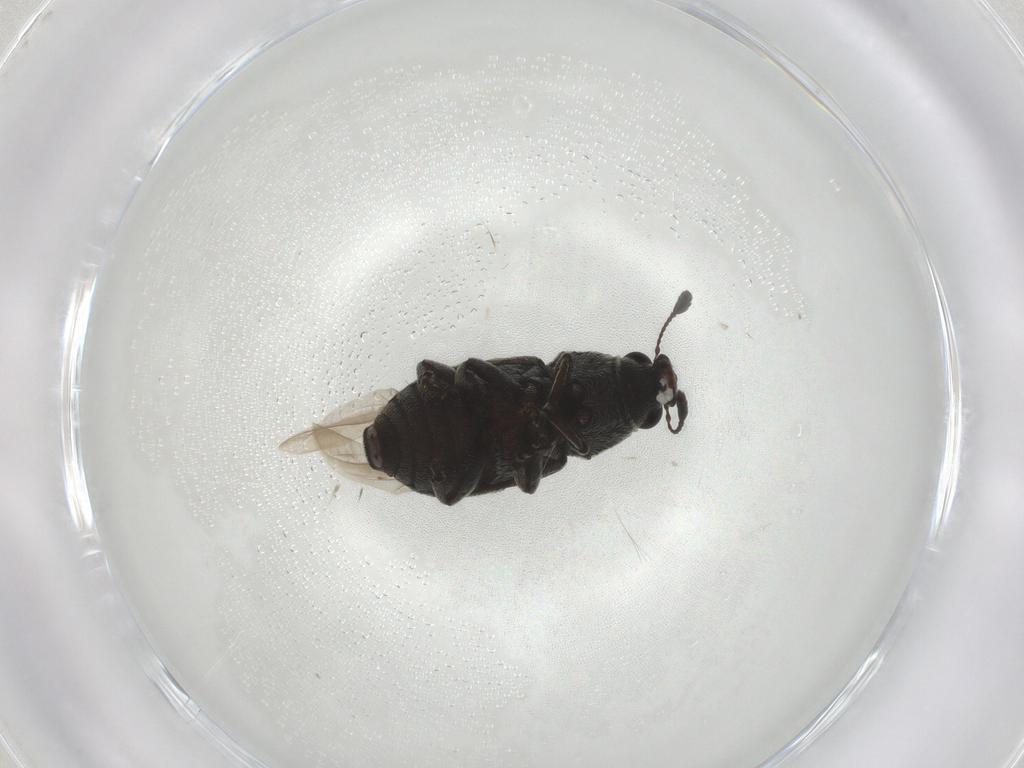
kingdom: Animalia
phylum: Arthropoda
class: Insecta
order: Coleoptera
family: Anthribidae
